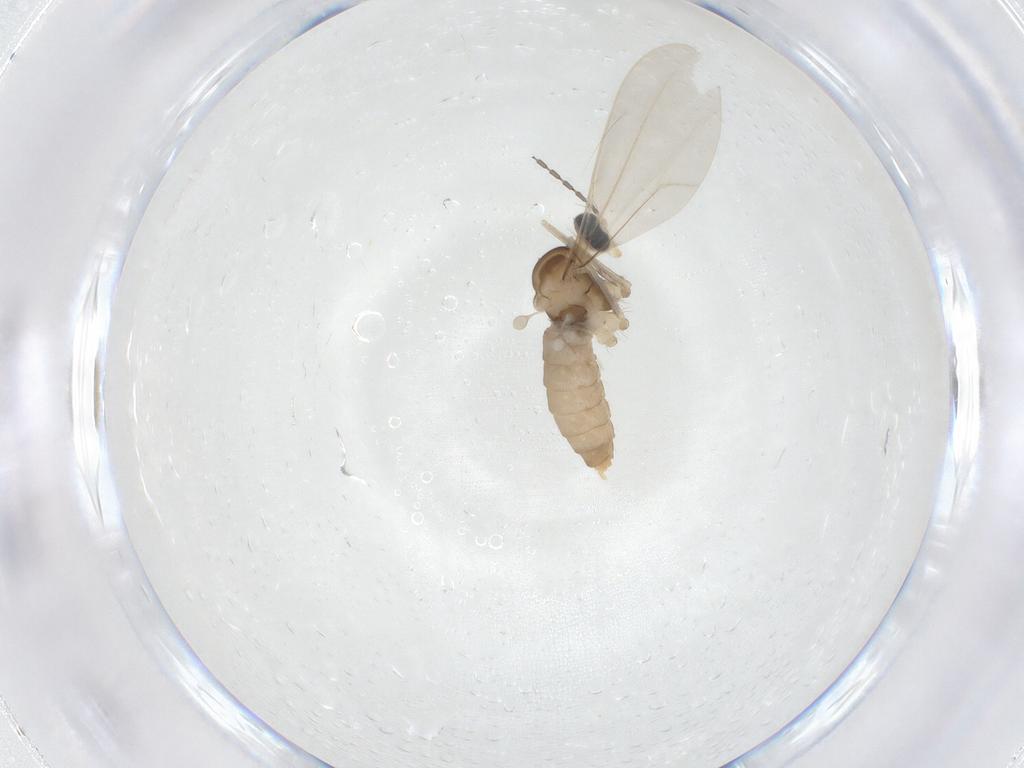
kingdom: Animalia
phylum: Arthropoda
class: Insecta
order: Diptera
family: Cecidomyiidae
